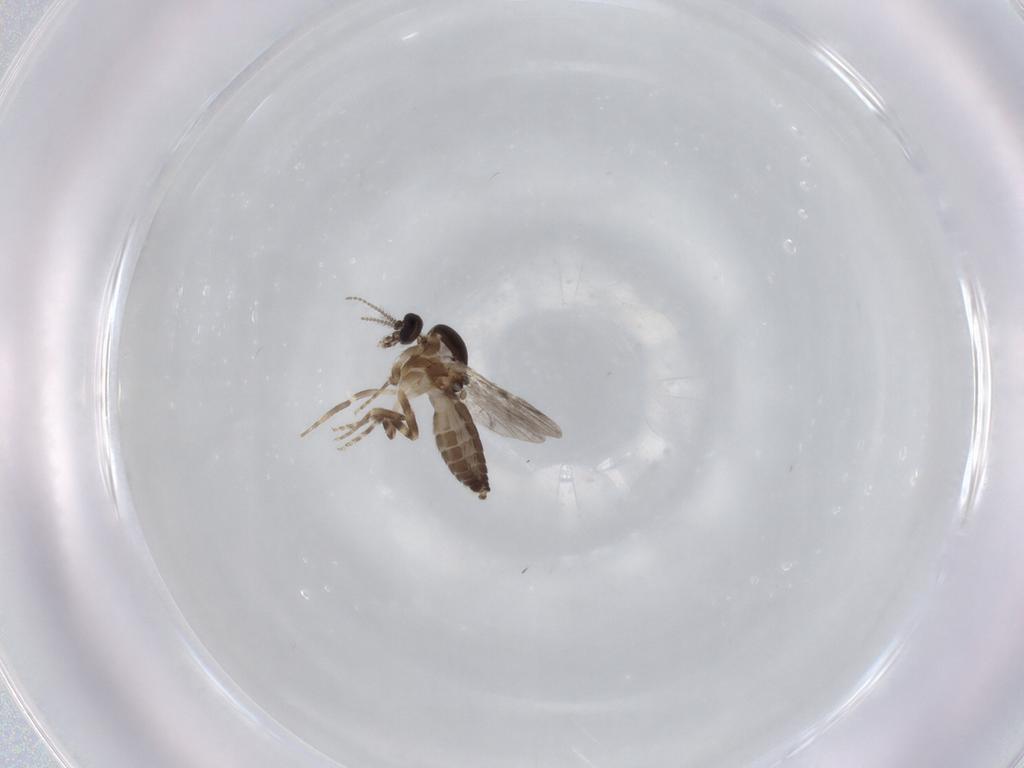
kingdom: Animalia
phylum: Arthropoda
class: Insecta
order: Diptera
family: Ceratopogonidae
